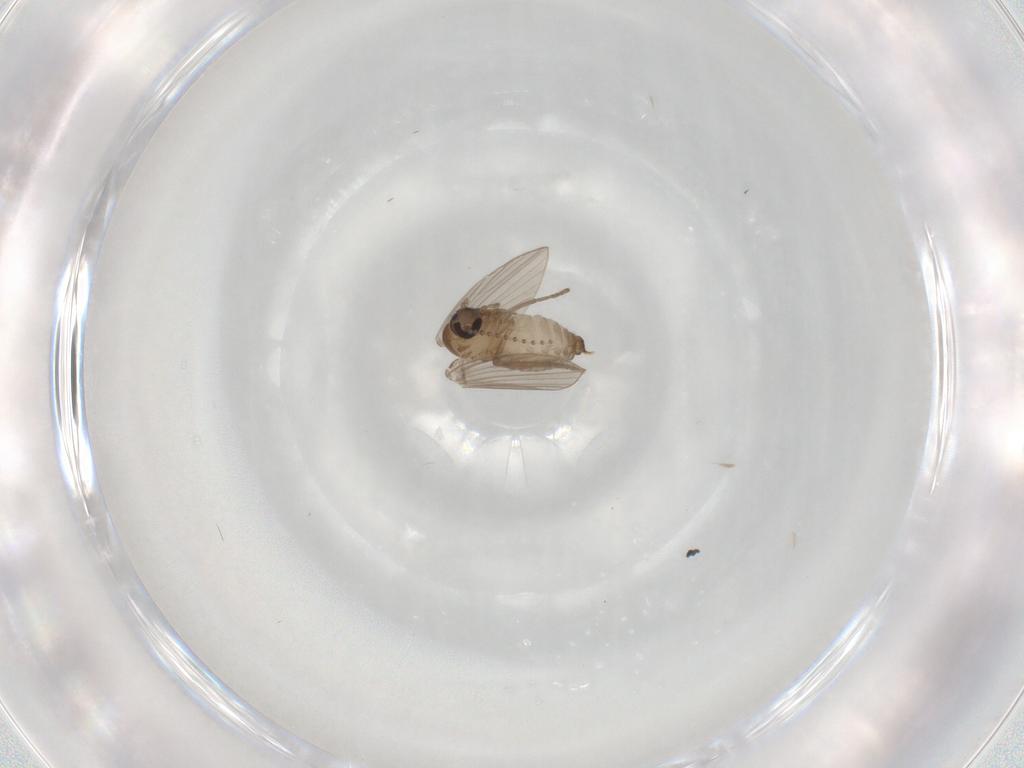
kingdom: Animalia
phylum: Arthropoda
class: Insecta
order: Diptera
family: Psychodidae
